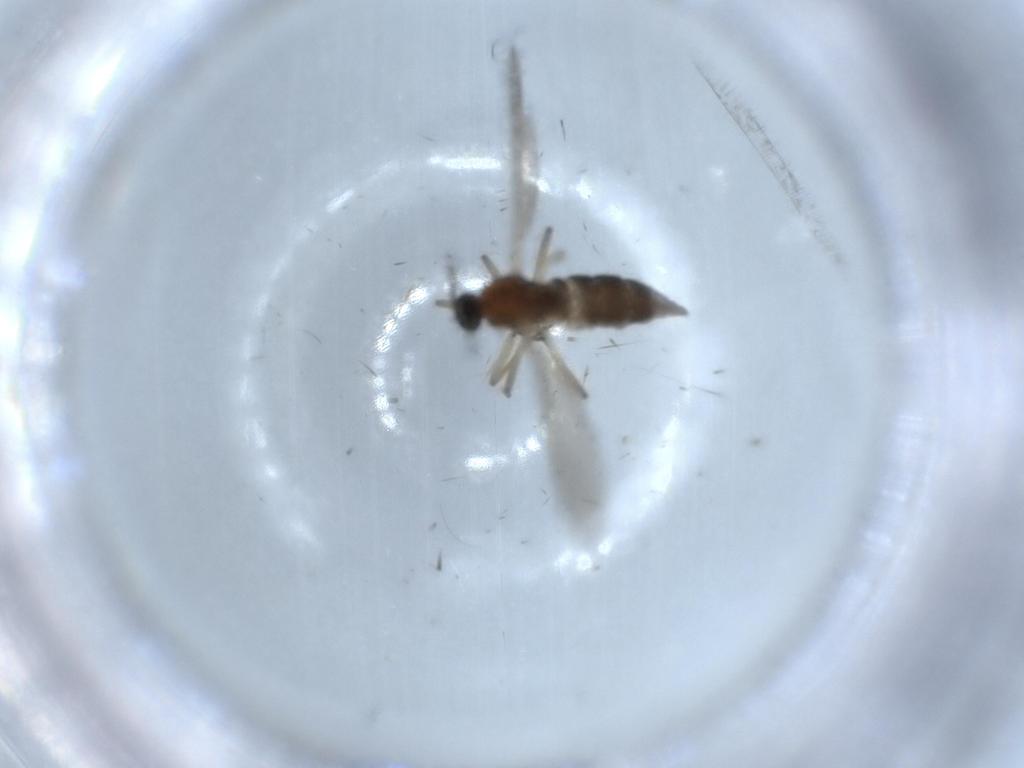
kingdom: Animalia
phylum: Arthropoda
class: Insecta
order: Diptera
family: Sciaridae
